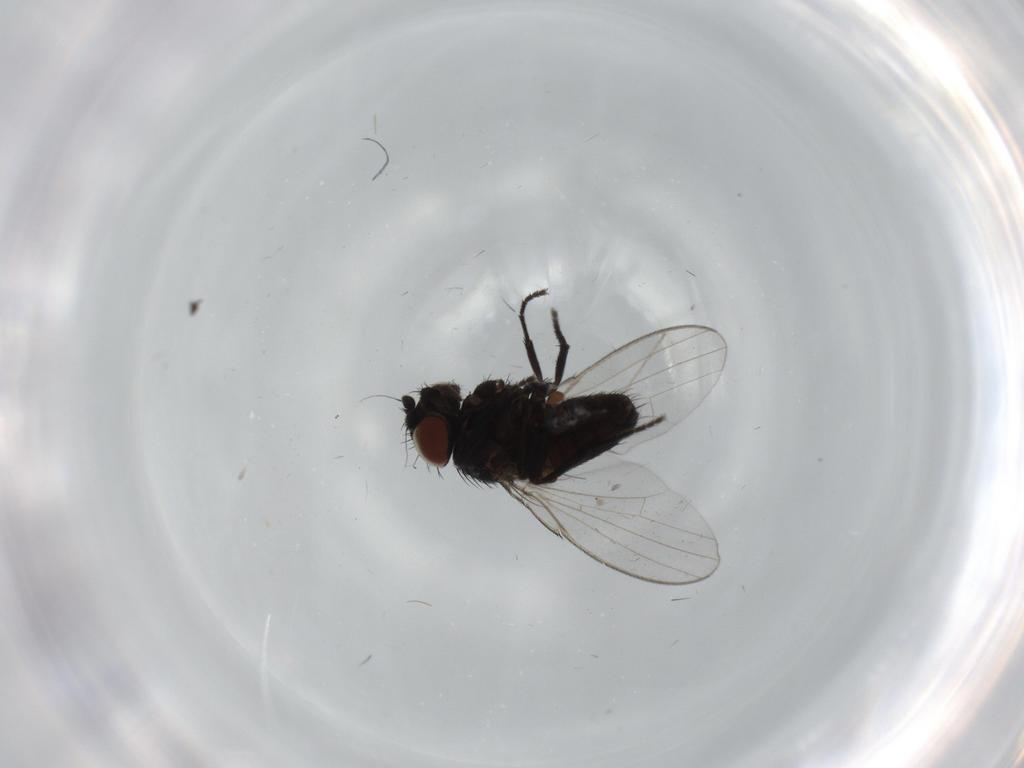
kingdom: Animalia
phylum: Arthropoda
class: Insecta
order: Diptera
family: Milichiidae
